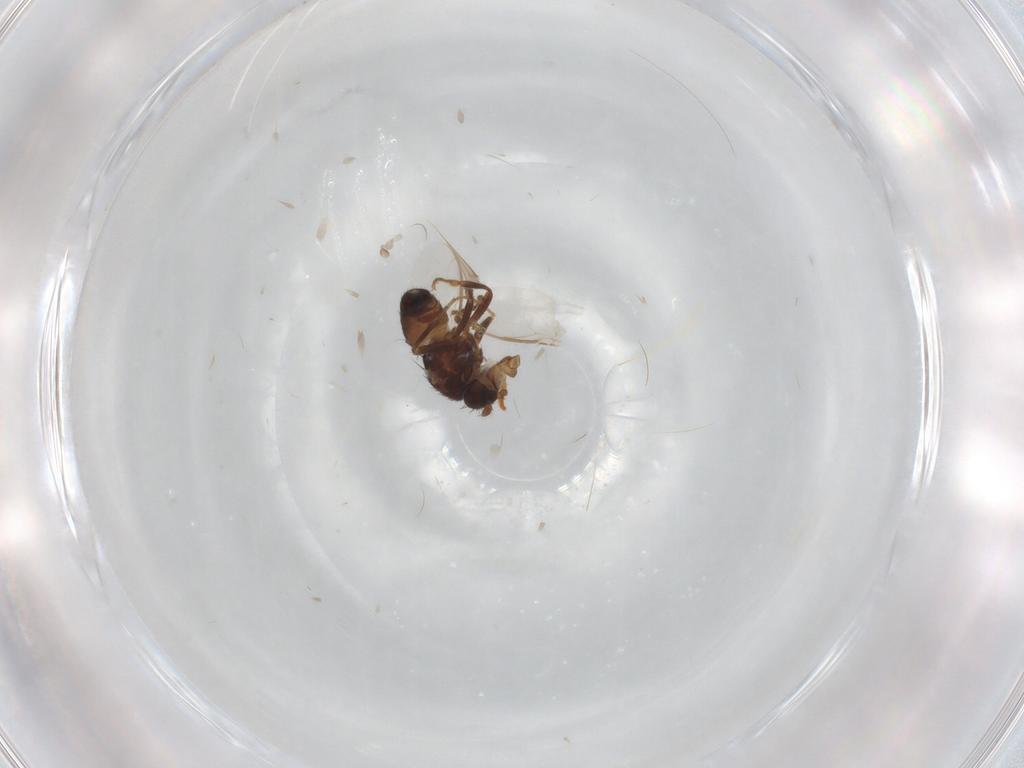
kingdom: Animalia
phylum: Arthropoda
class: Insecta
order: Diptera
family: Sphaeroceridae
